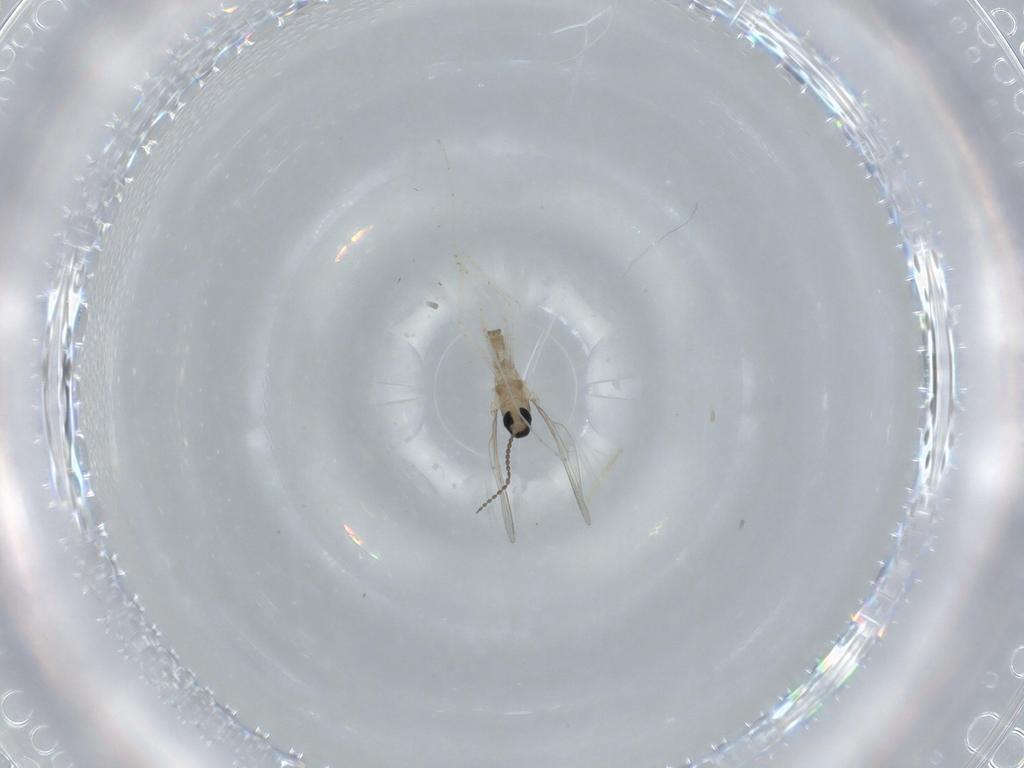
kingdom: Animalia
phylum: Arthropoda
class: Insecta
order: Diptera
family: Cecidomyiidae
